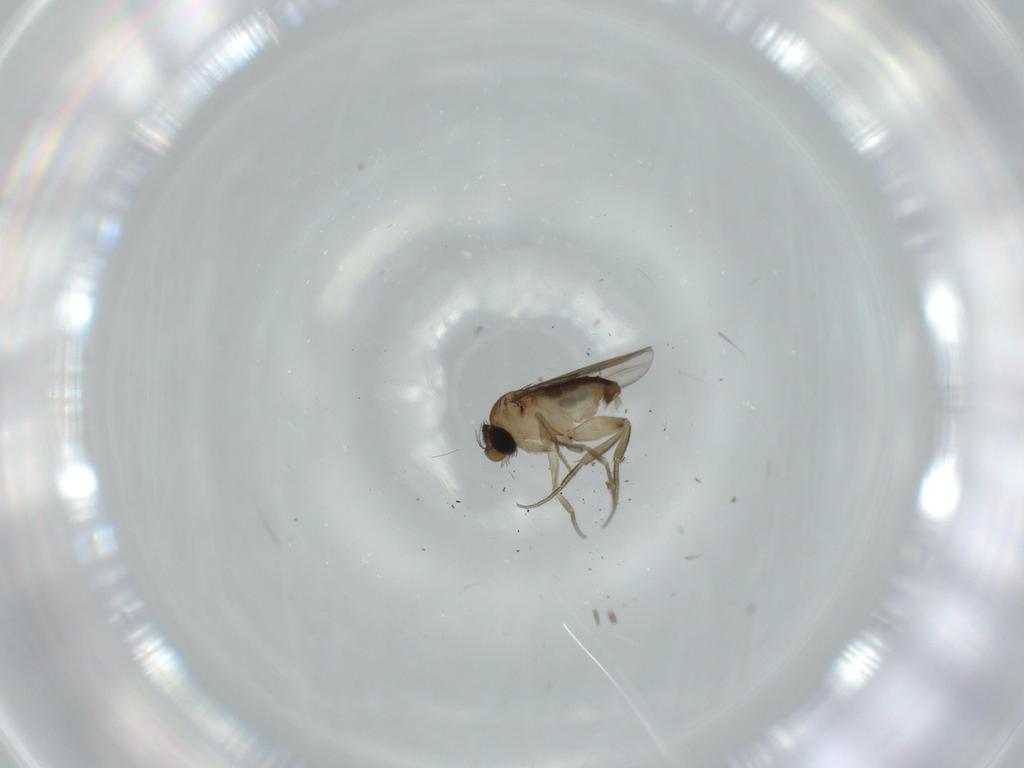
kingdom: Animalia
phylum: Arthropoda
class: Insecta
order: Diptera
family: Phoridae
